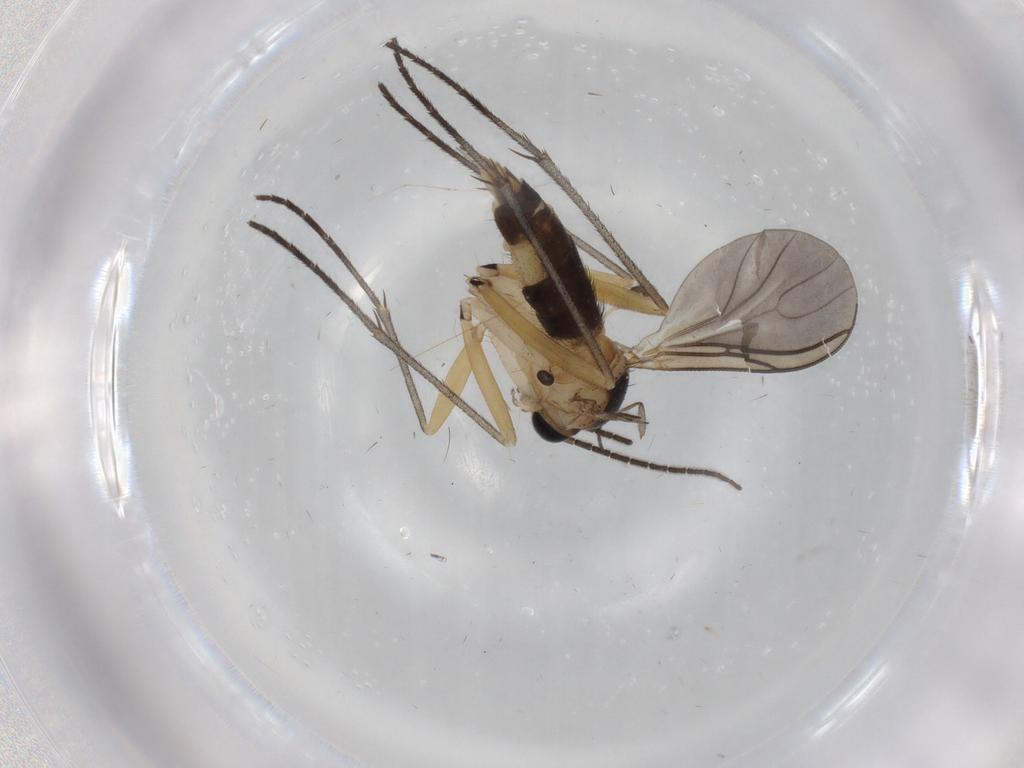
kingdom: Animalia
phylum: Arthropoda
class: Insecta
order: Diptera
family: Sciaridae
